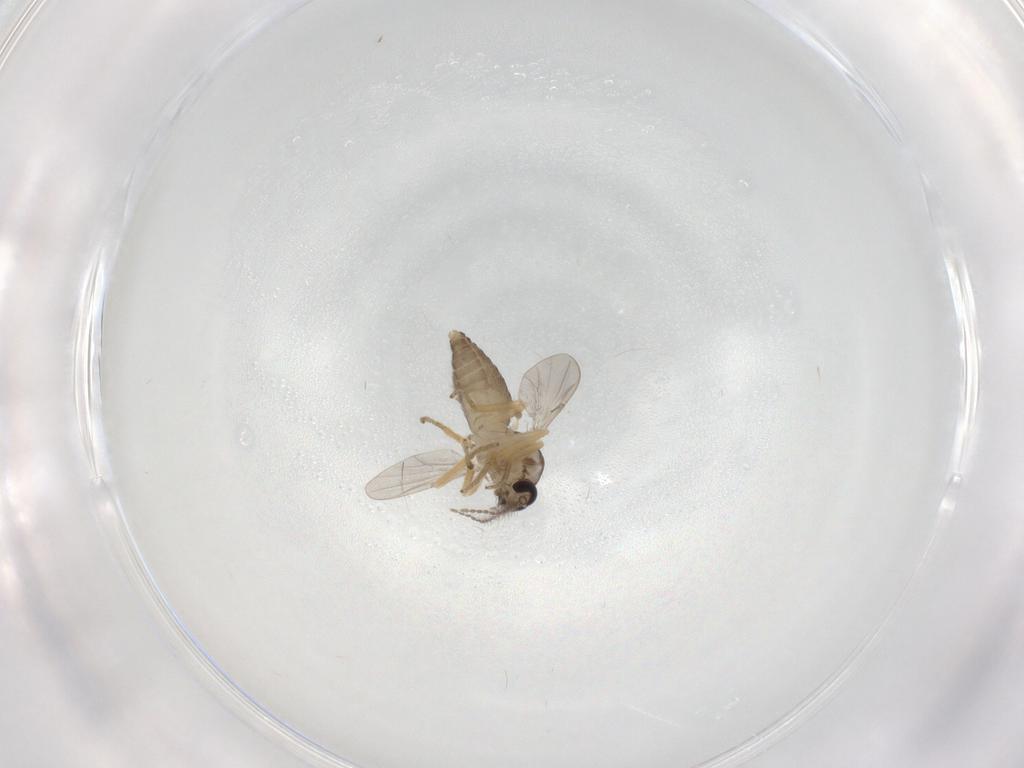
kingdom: Animalia
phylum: Arthropoda
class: Insecta
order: Diptera
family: Ceratopogonidae
